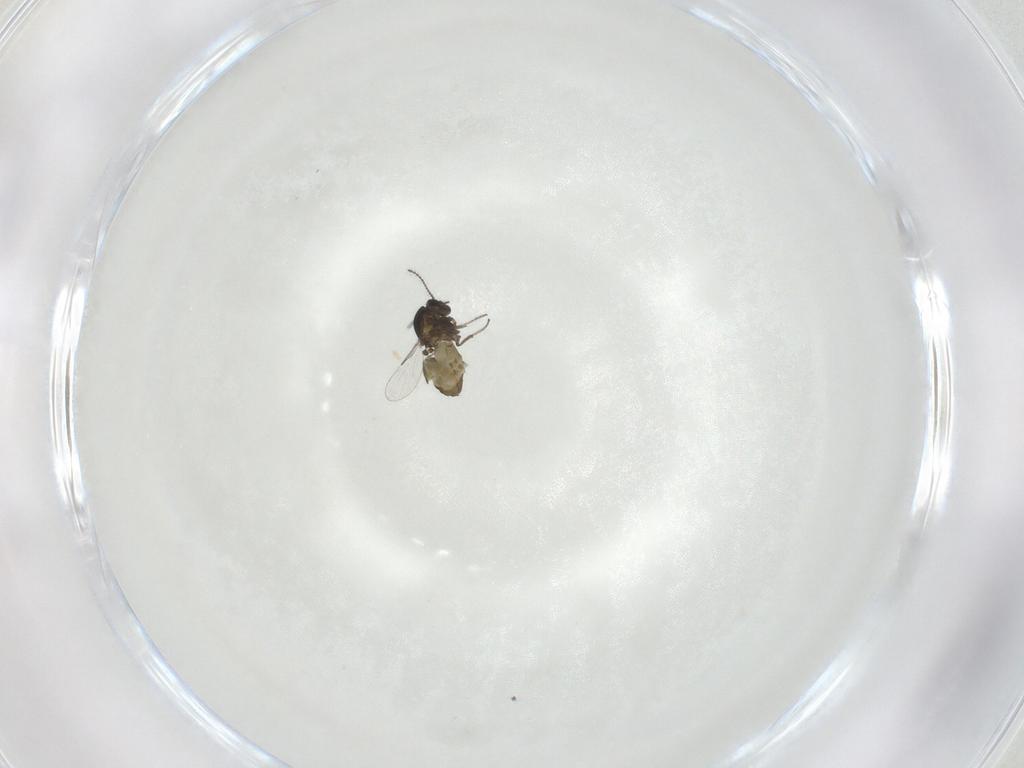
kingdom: Animalia
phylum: Arthropoda
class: Insecta
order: Diptera
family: Ceratopogonidae
